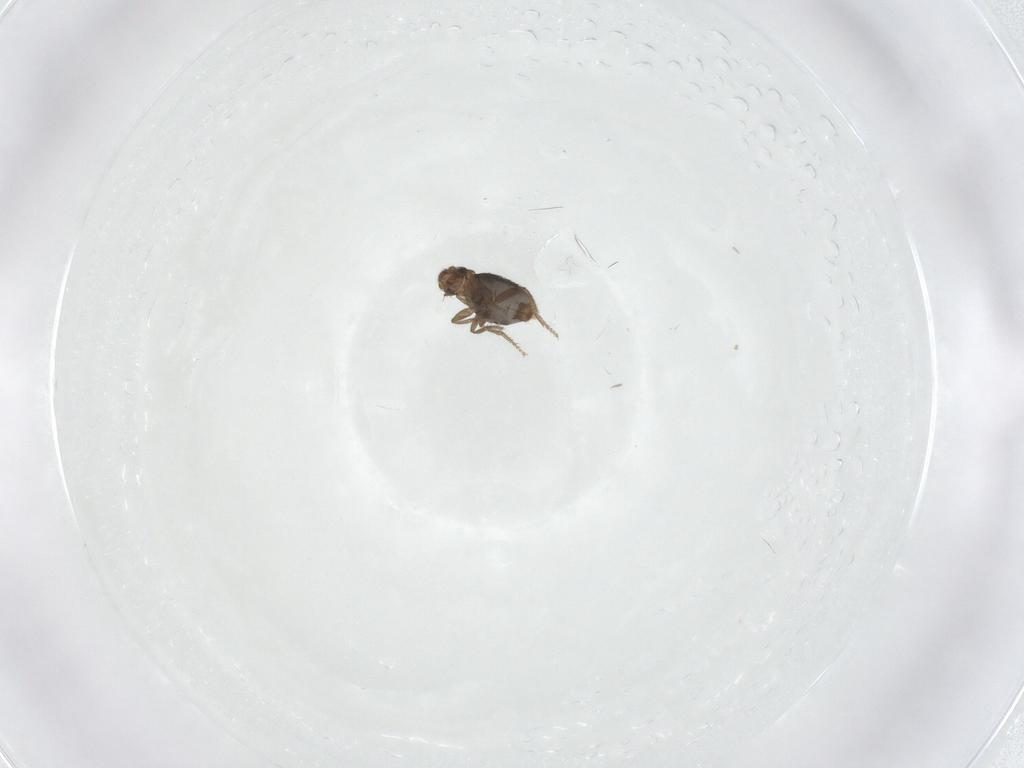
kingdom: Animalia
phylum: Arthropoda
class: Insecta
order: Diptera
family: Phoridae
